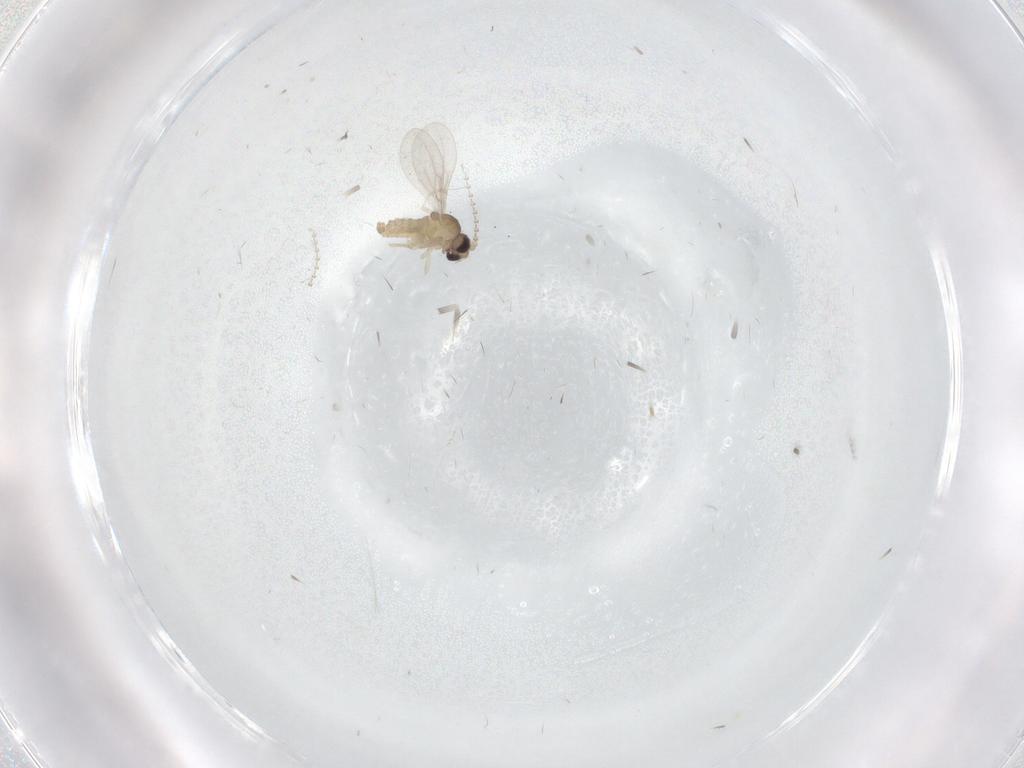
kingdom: Animalia
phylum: Arthropoda
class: Insecta
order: Diptera
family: Cecidomyiidae
